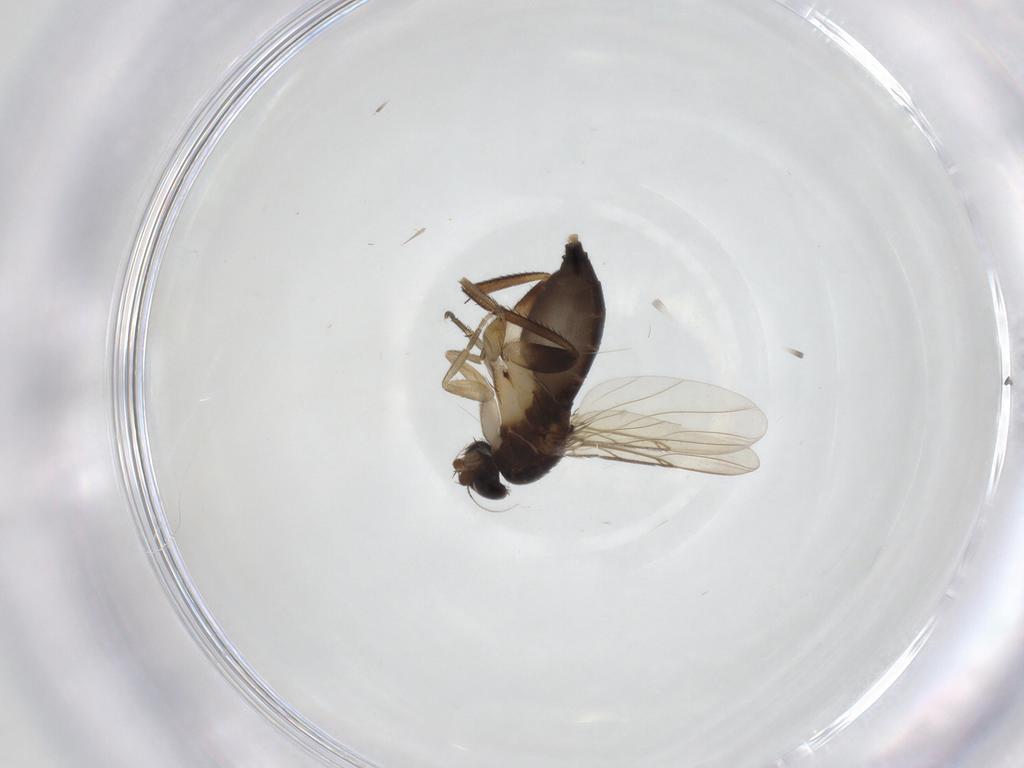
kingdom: Animalia
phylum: Arthropoda
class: Insecta
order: Diptera
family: Phoridae
